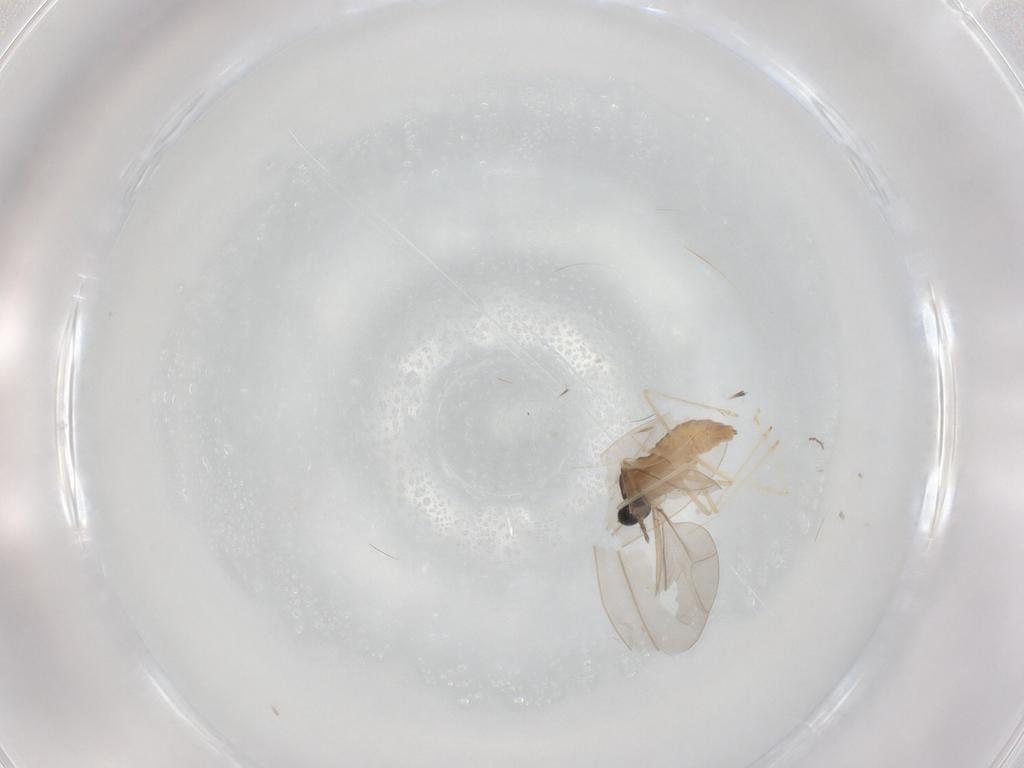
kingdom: Animalia
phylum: Arthropoda
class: Insecta
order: Diptera
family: Cecidomyiidae
